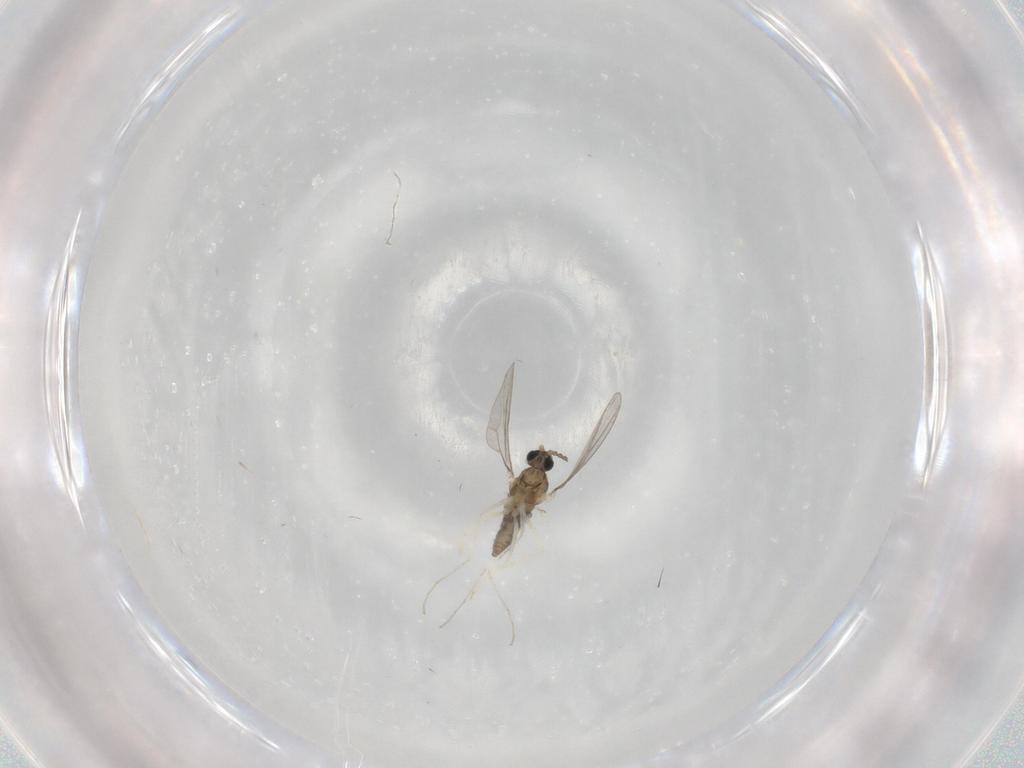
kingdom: Animalia
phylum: Arthropoda
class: Insecta
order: Diptera
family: Cecidomyiidae
